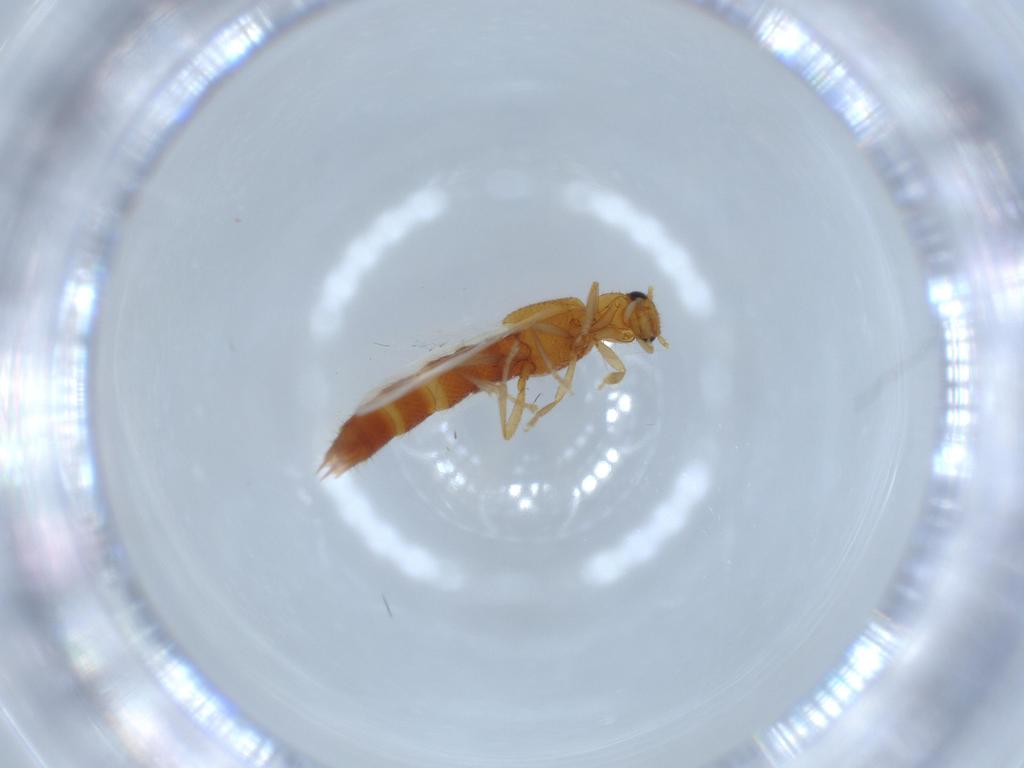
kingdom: Animalia
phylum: Arthropoda
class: Insecta
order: Coleoptera
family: Staphylinidae
